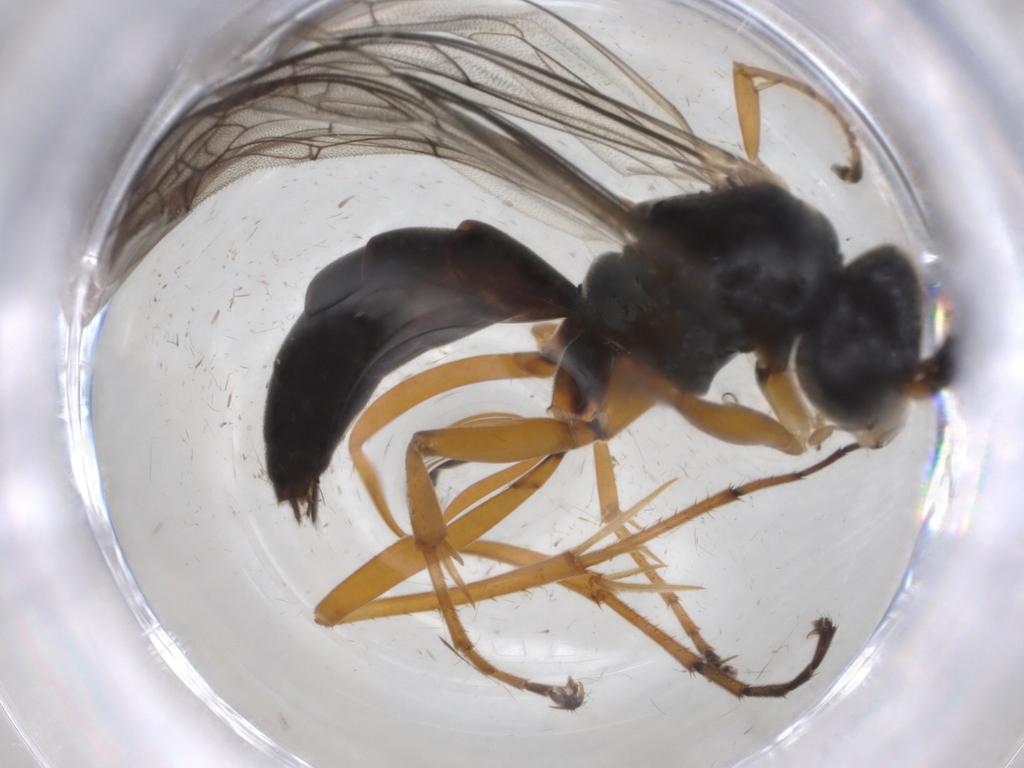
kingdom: Animalia
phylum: Arthropoda
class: Insecta
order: Hymenoptera
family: Pompilidae
